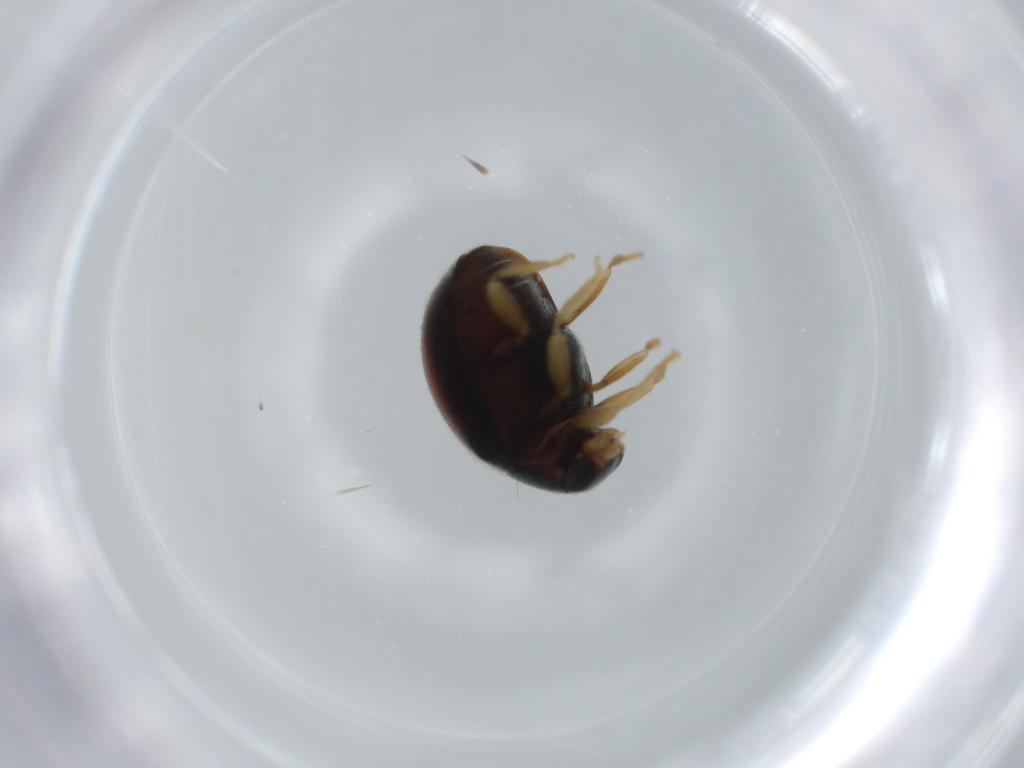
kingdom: Animalia
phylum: Arthropoda
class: Insecta
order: Coleoptera
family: Coccinellidae
